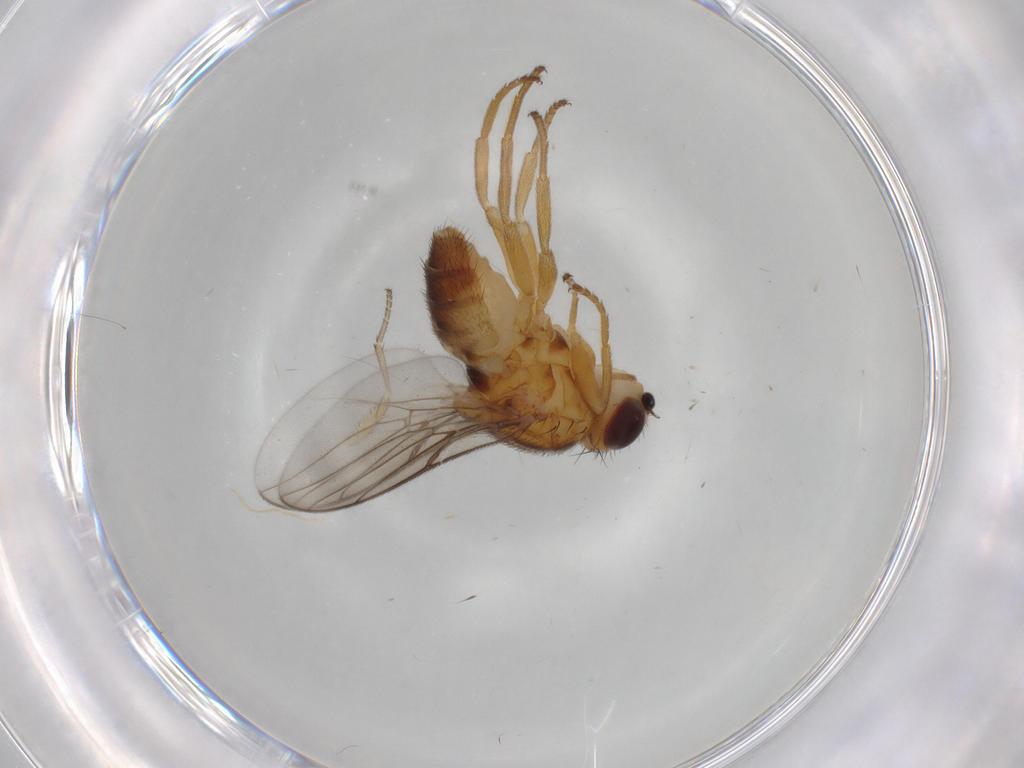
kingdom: Animalia
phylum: Arthropoda
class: Insecta
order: Diptera
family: Chloropidae
